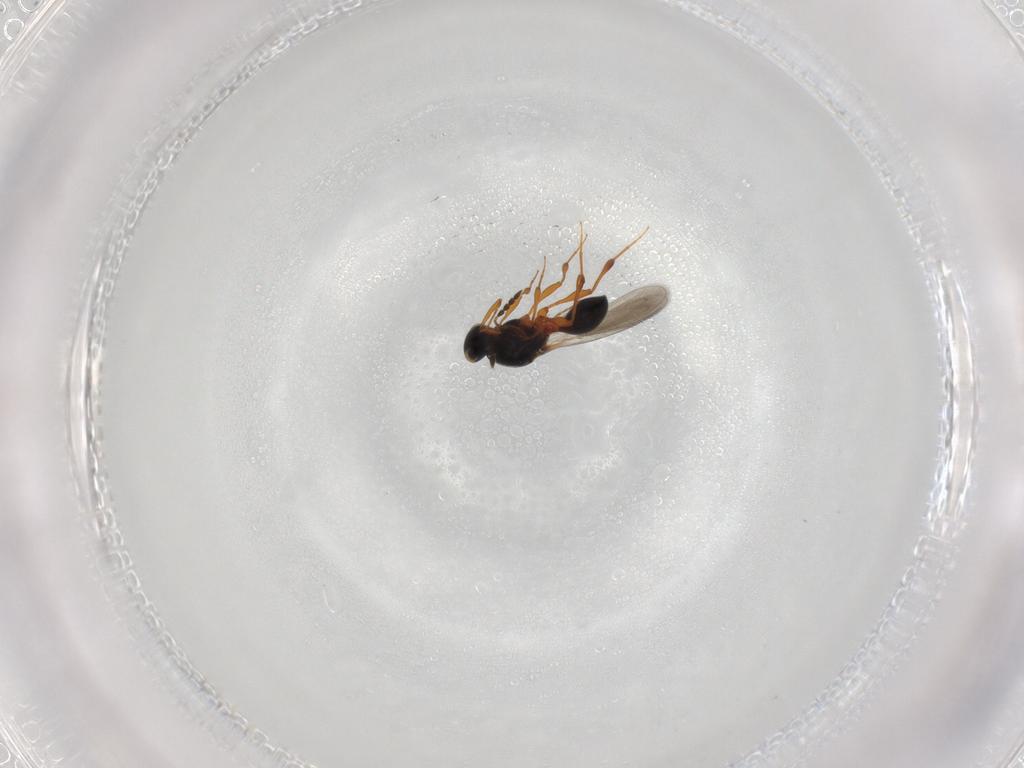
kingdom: Animalia
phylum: Arthropoda
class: Insecta
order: Hymenoptera
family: Platygastridae
